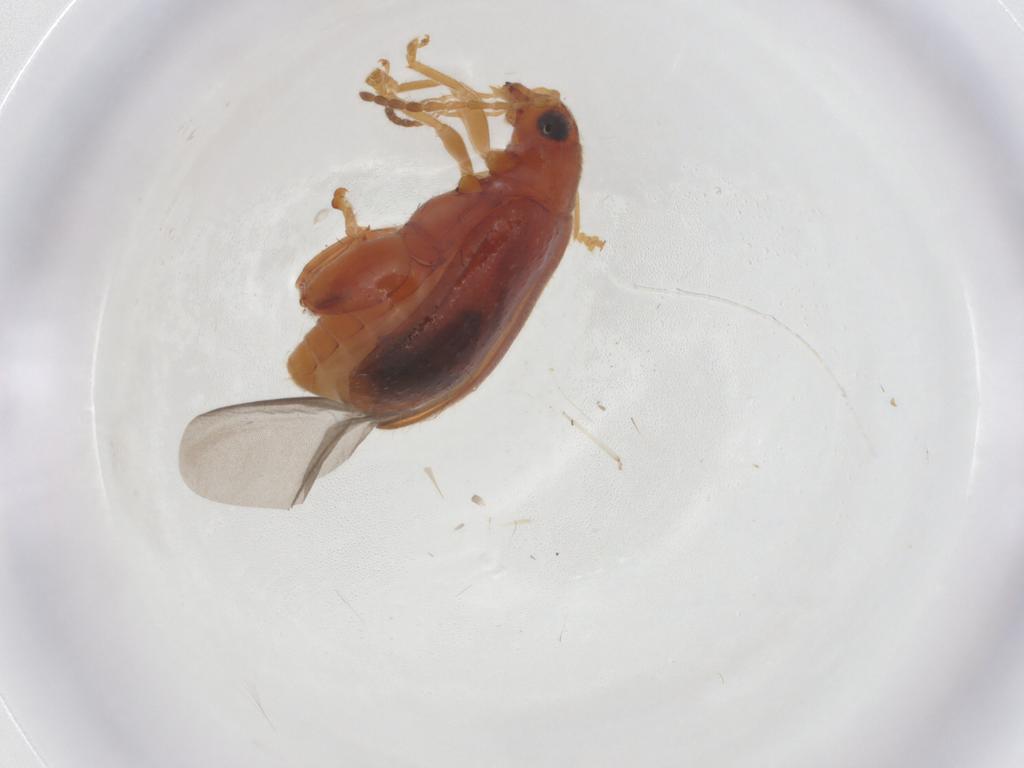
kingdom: Animalia
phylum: Arthropoda
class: Insecta
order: Coleoptera
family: Chrysomelidae
